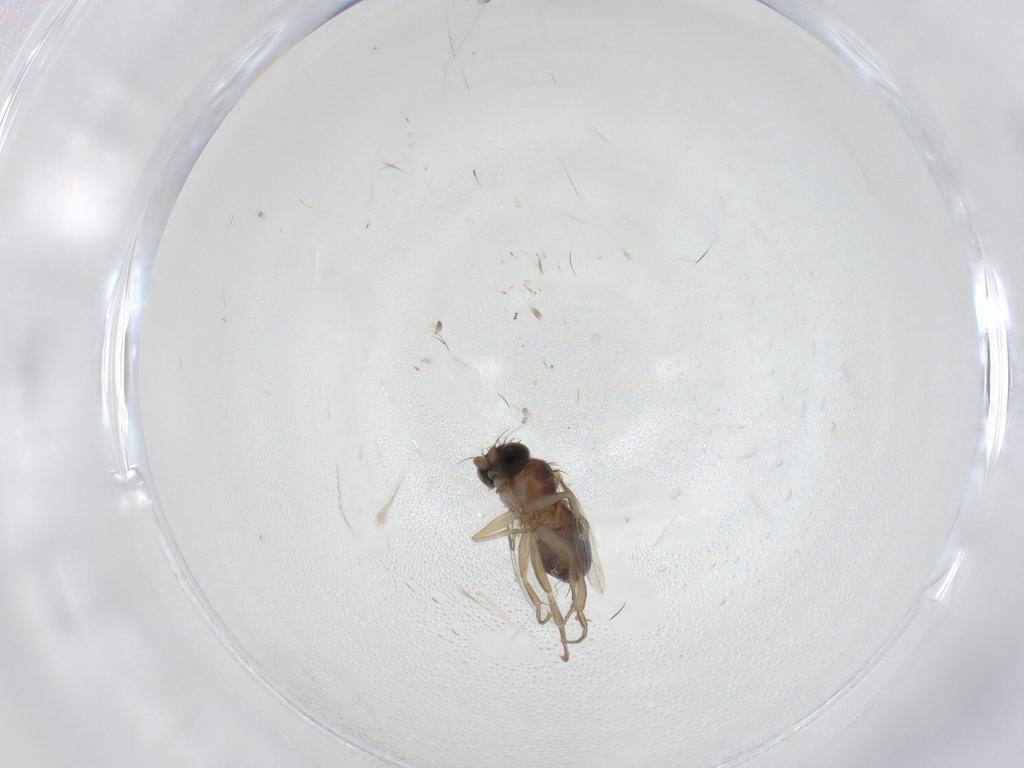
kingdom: Animalia
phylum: Arthropoda
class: Insecta
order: Diptera
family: Phoridae
